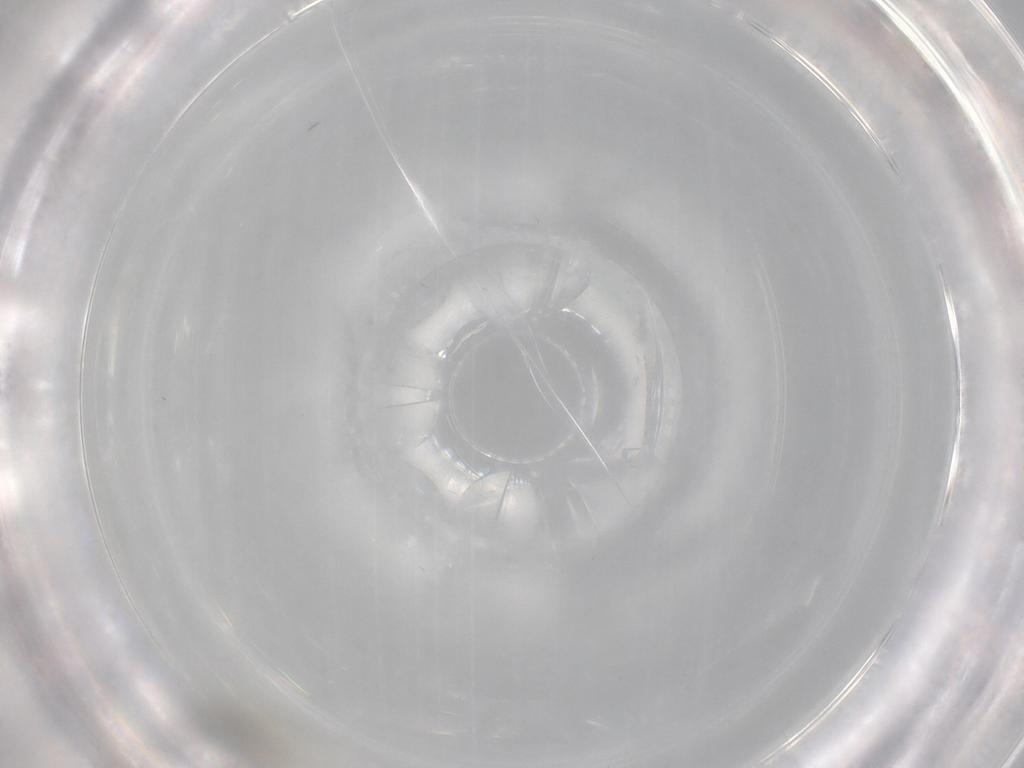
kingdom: Animalia
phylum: Arthropoda
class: Insecta
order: Diptera
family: Cecidomyiidae
